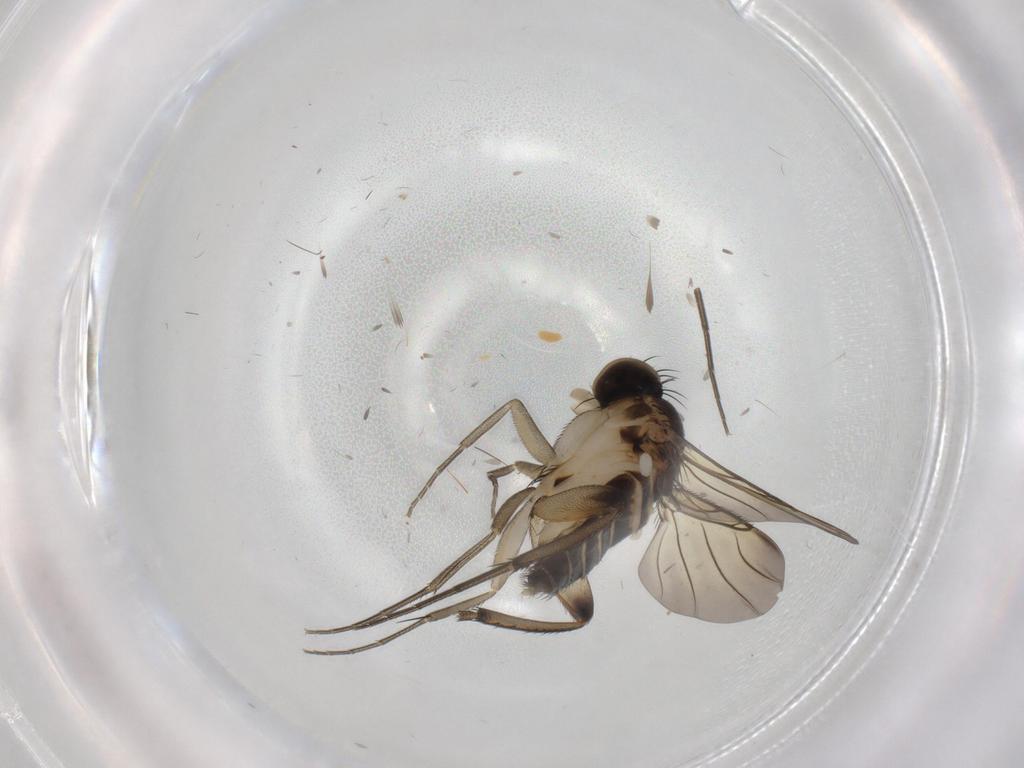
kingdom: Animalia
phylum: Arthropoda
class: Insecta
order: Diptera
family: Phoridae
